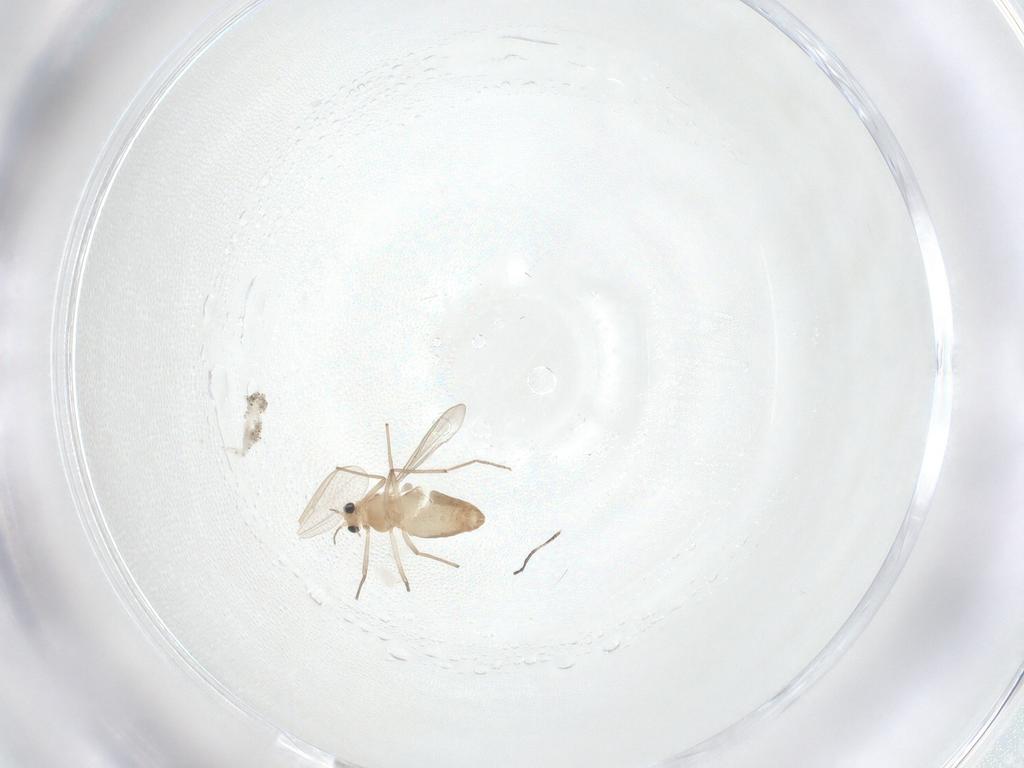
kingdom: Animalia
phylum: Arthropoda
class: Insecta
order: Diptera
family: Cecidomyiidae
